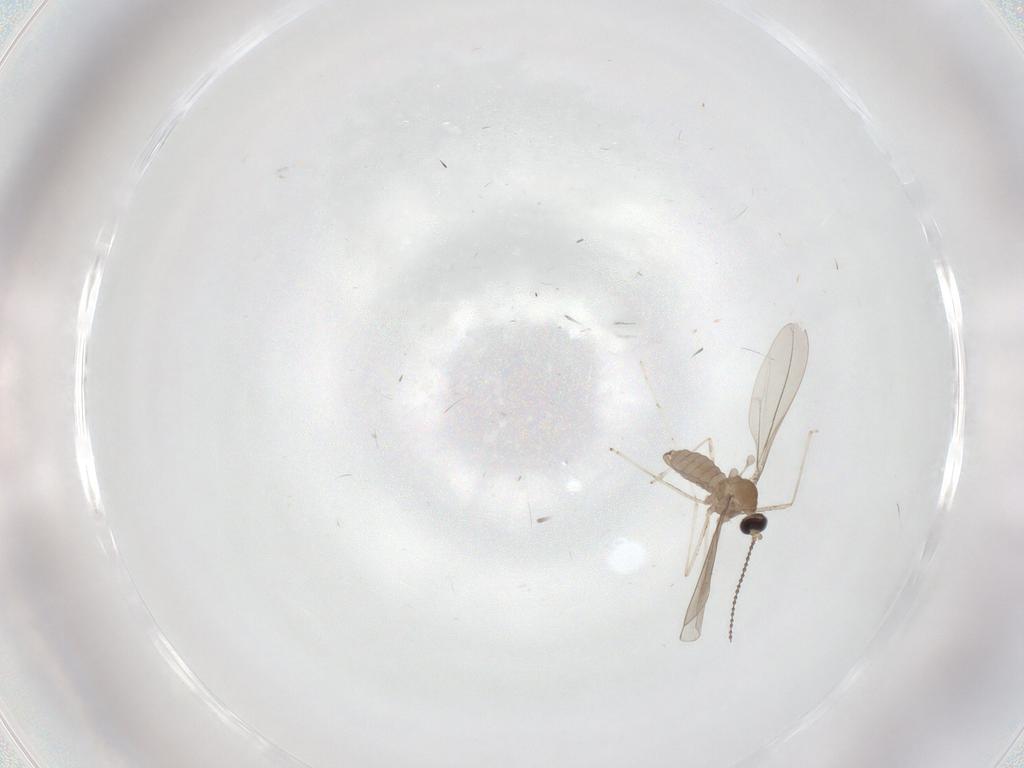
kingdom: Animalia
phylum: Arthropoda
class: Insecta
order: Diptera
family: Cecidomyiidae
